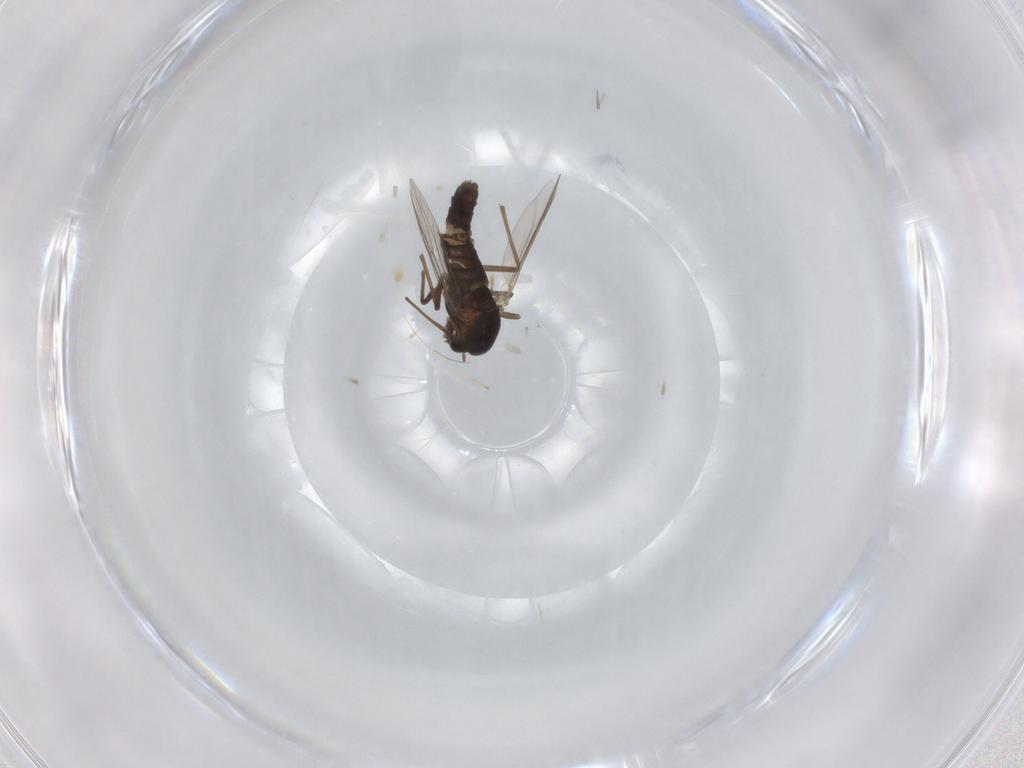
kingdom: Animalia
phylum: Arthropoda
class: Insecta
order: Diptera
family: Chironomidae
